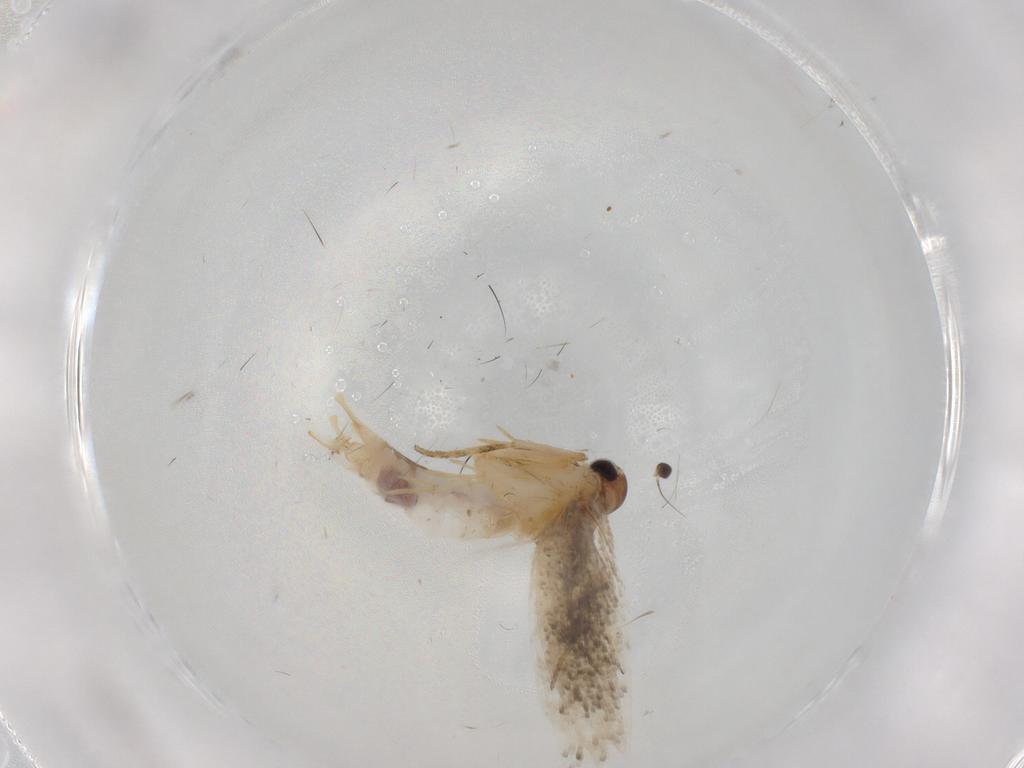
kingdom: Animalia
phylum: Arthropoda
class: Insecta
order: Lepidoptera
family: Gelechiidae
